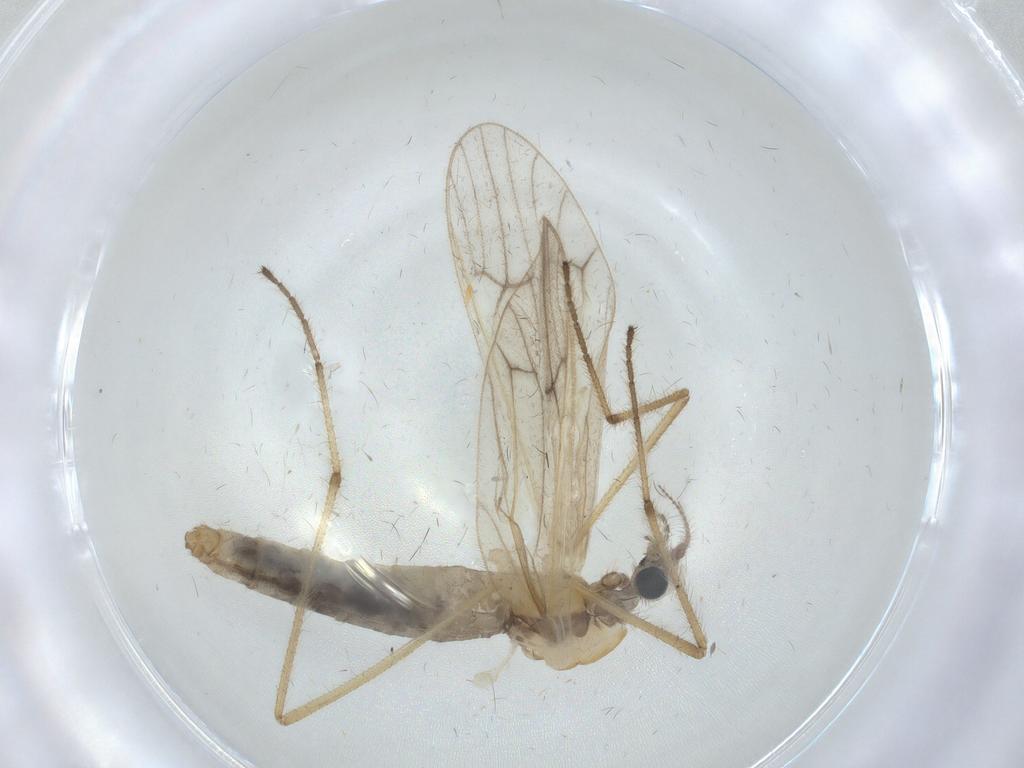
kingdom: Animalia
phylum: Arthropoda
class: Insecta
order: Diptera
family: Limoniidae
